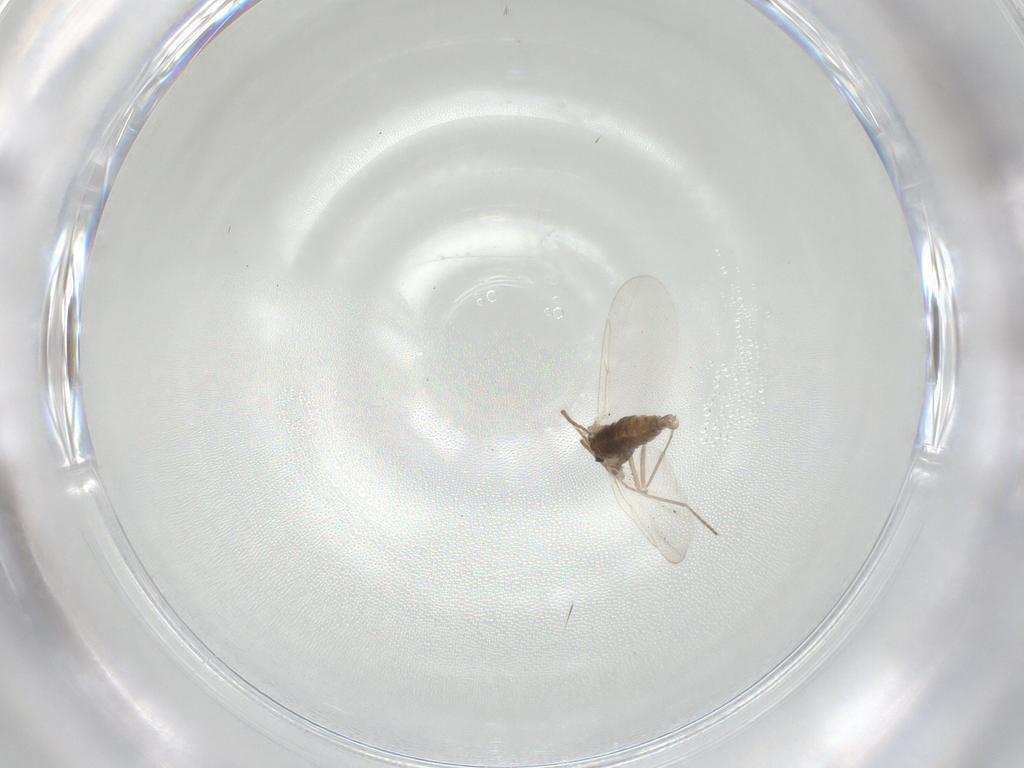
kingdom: Animalia
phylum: Arthropoda
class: Insecta
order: Diptera
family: Cecidomyiidae
